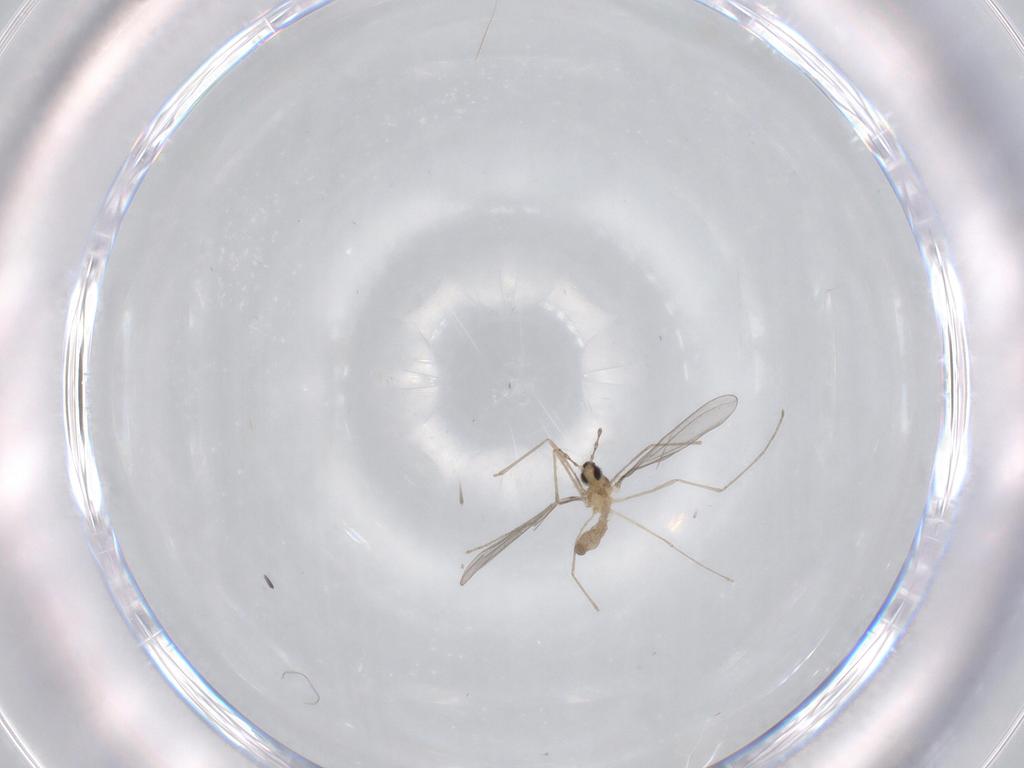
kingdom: Animalia
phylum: Arthropoda
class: Insecta
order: Diptera
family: Cecidomyiidae
